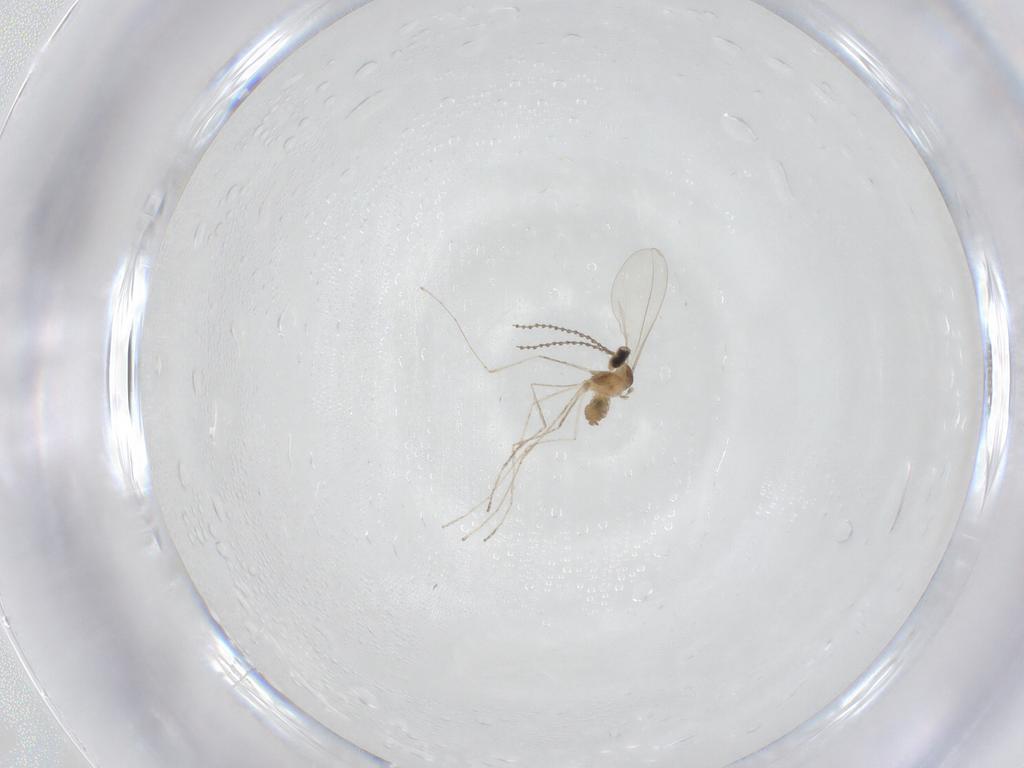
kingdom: Animalia
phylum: Arthropoda
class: Insecta
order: Diptera
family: Cecidomyiidae
